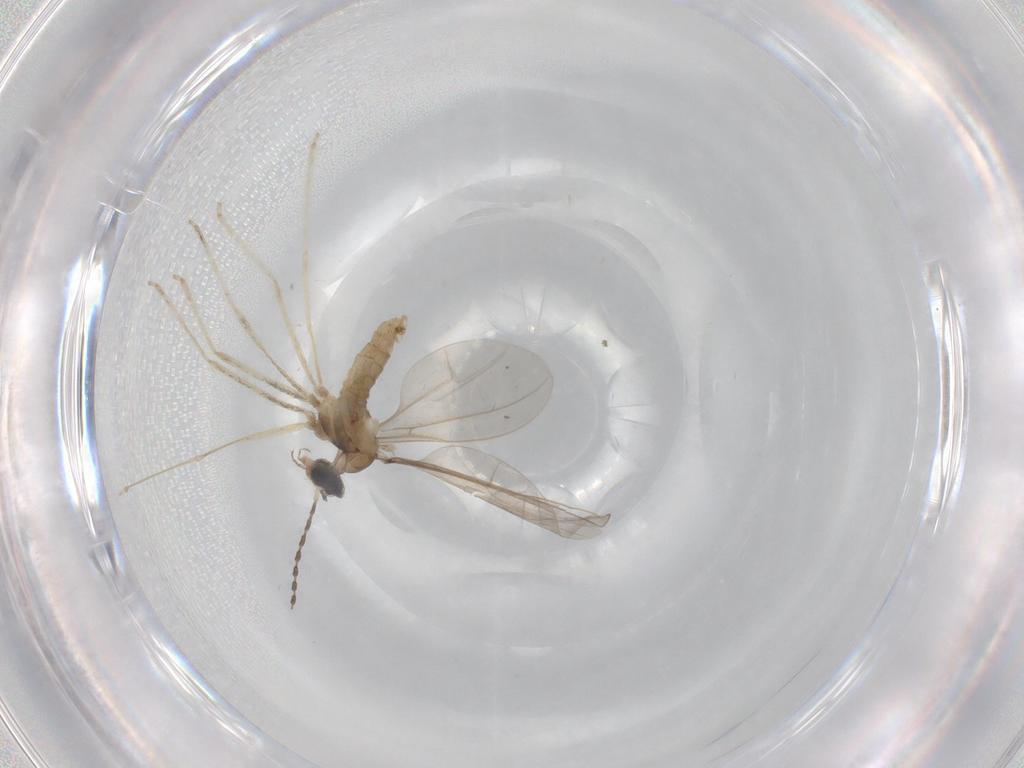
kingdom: Animalia
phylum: Arthropoda
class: Insecta
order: Diptera
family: Cecidomyiidae
